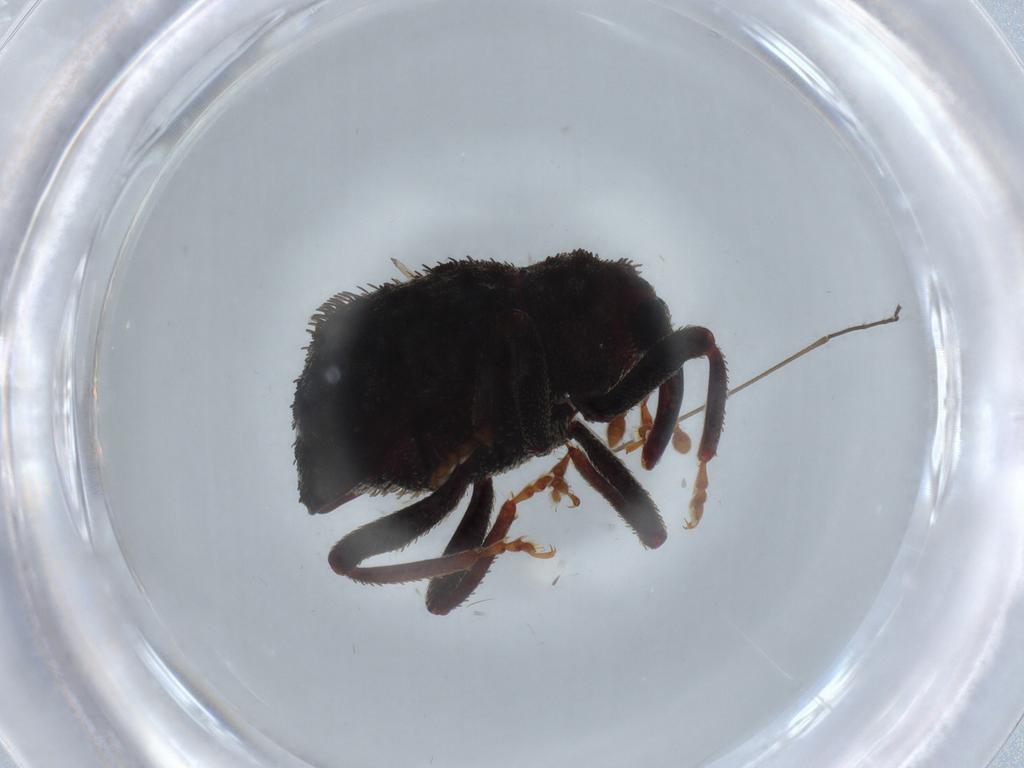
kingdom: Animalia
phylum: Arthropoda
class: Insecta
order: Coleoptera
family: Curculionidae
